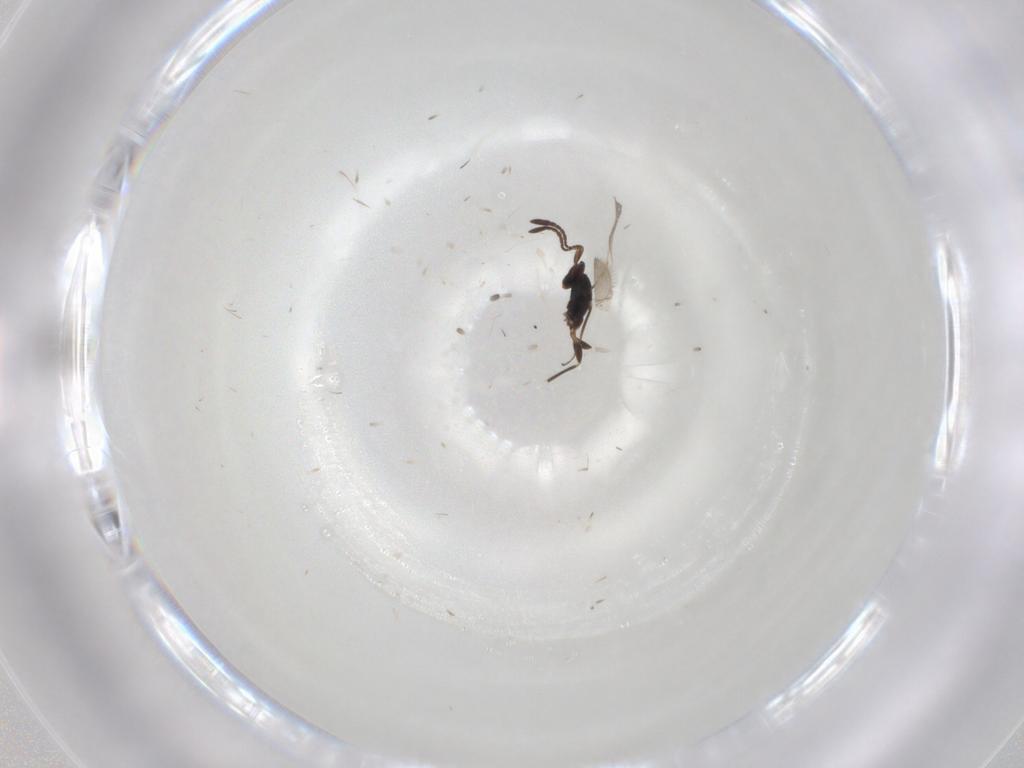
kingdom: Animalia
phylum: Arthropoda
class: Insecta
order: Hymenoptera
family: Mymaridae
